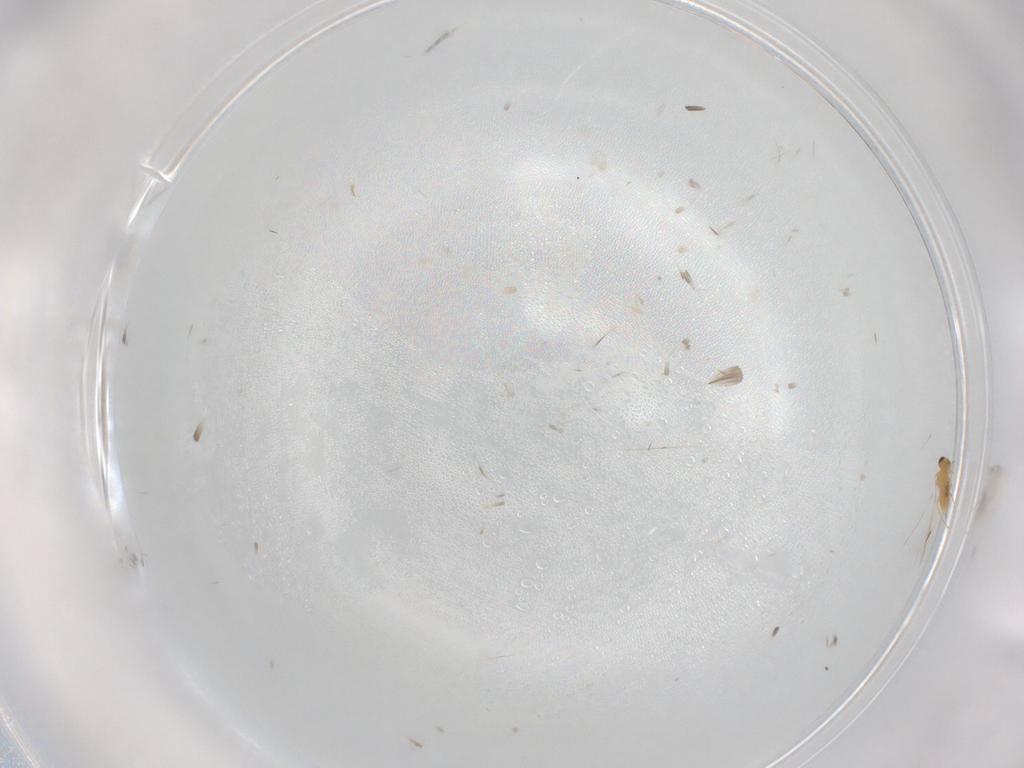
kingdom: Animalia
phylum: Arthropoda
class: Insecta
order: Hymenoptera
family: Mymaridae
